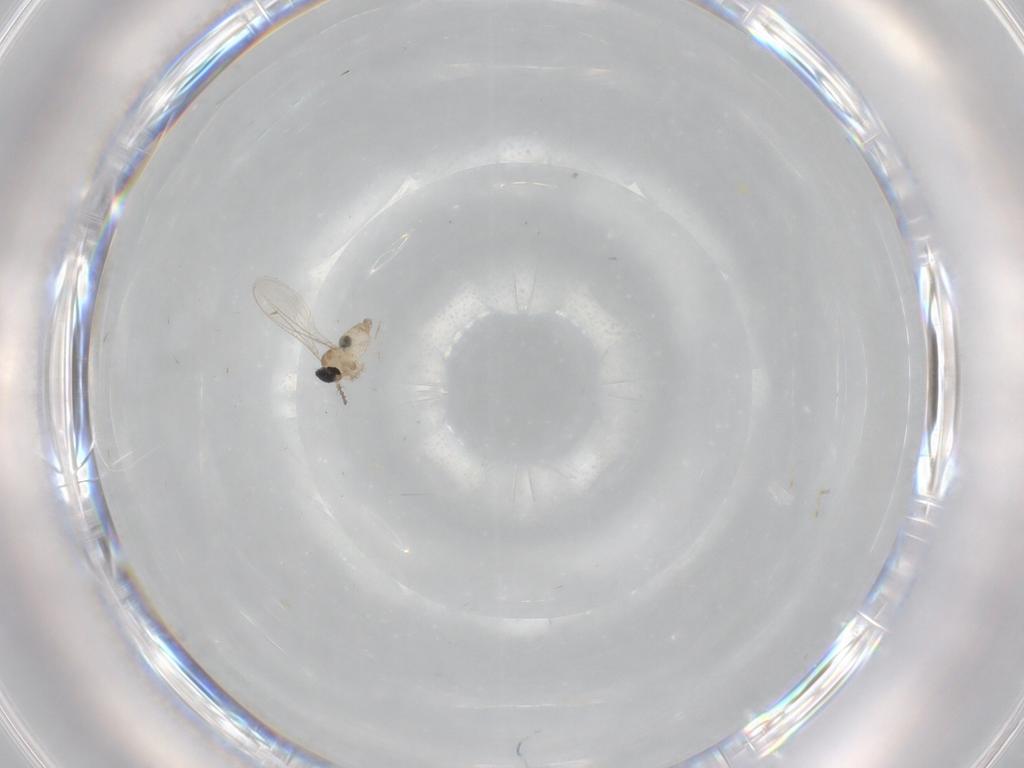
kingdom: Animalia
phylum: Arthropoda
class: Insecta
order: Diptera
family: Cecidomyiidae
